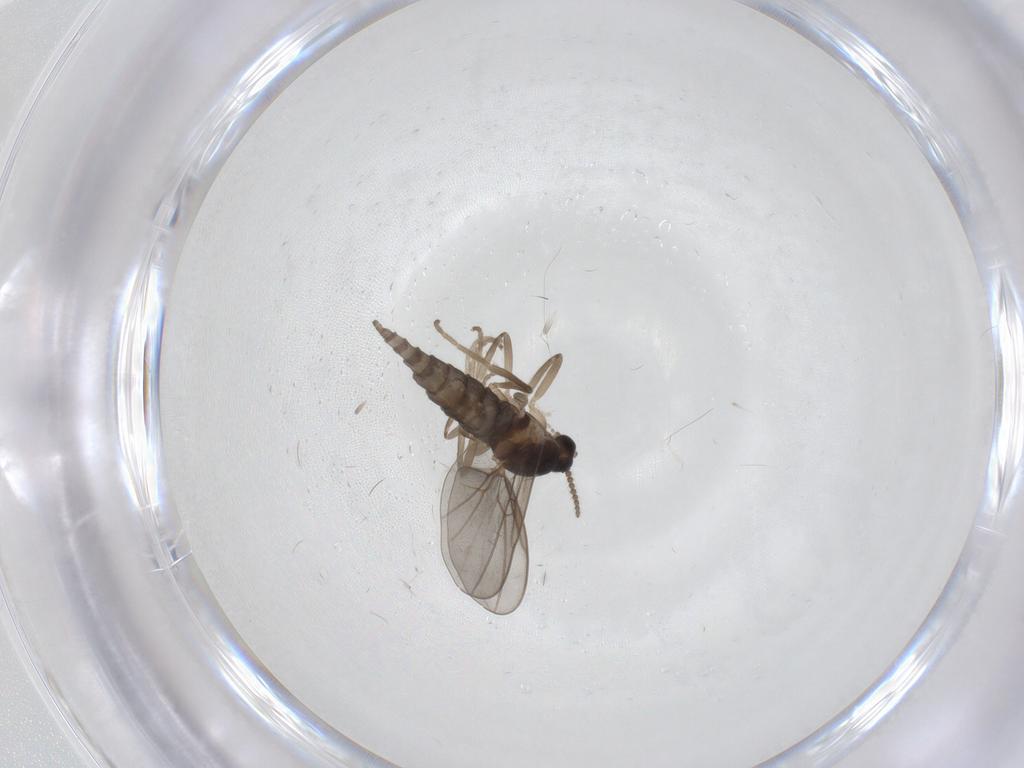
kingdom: Animalia
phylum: Arthropoda
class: Insecta
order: Diptera
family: Cecidomyiidae
